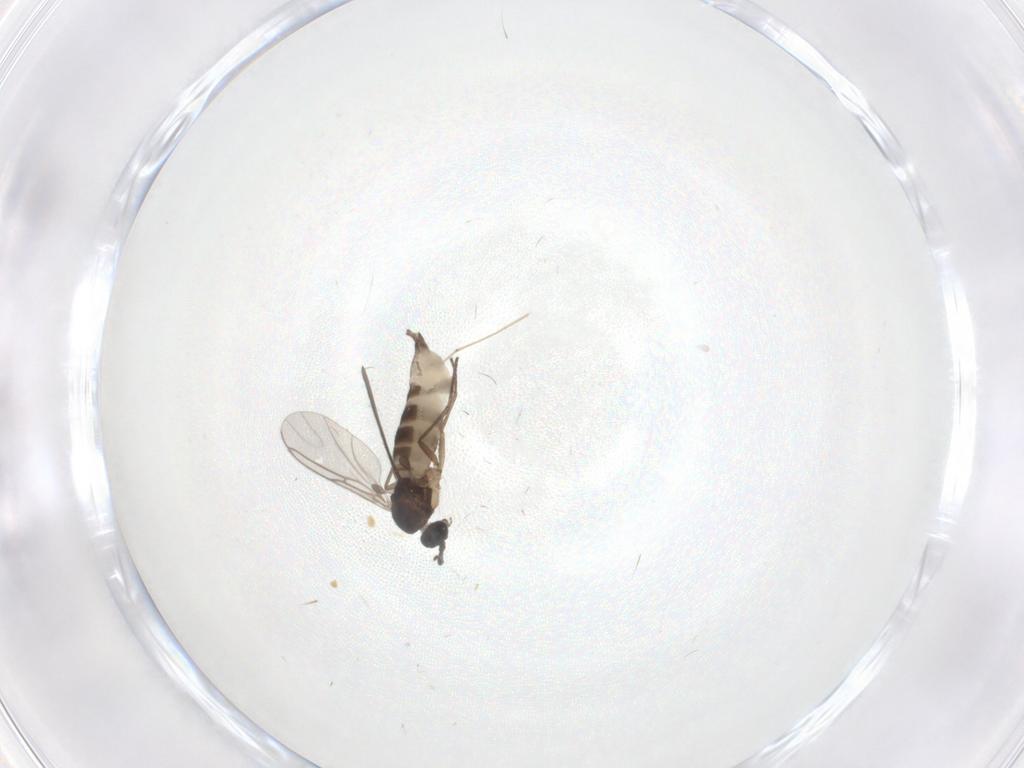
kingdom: Animalia
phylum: Arthropoda
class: Insecta
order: Diptera
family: Sciaridae
